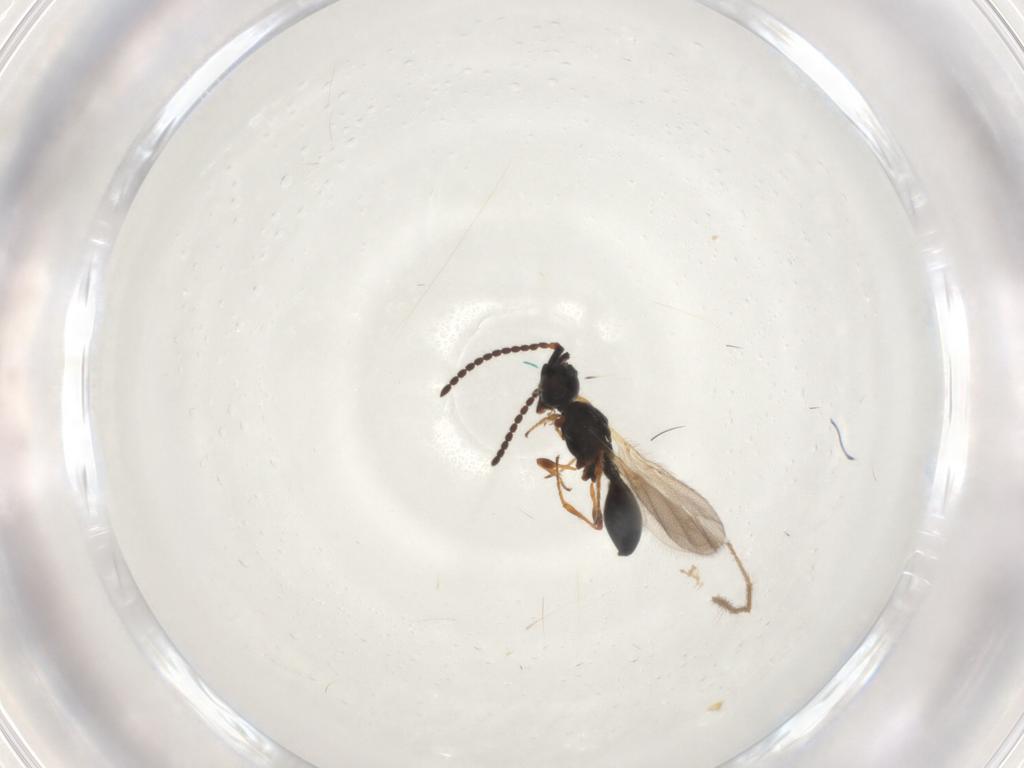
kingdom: Animalia
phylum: Arthropoda
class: Insecta
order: Hymenoptera
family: Diapriidae
